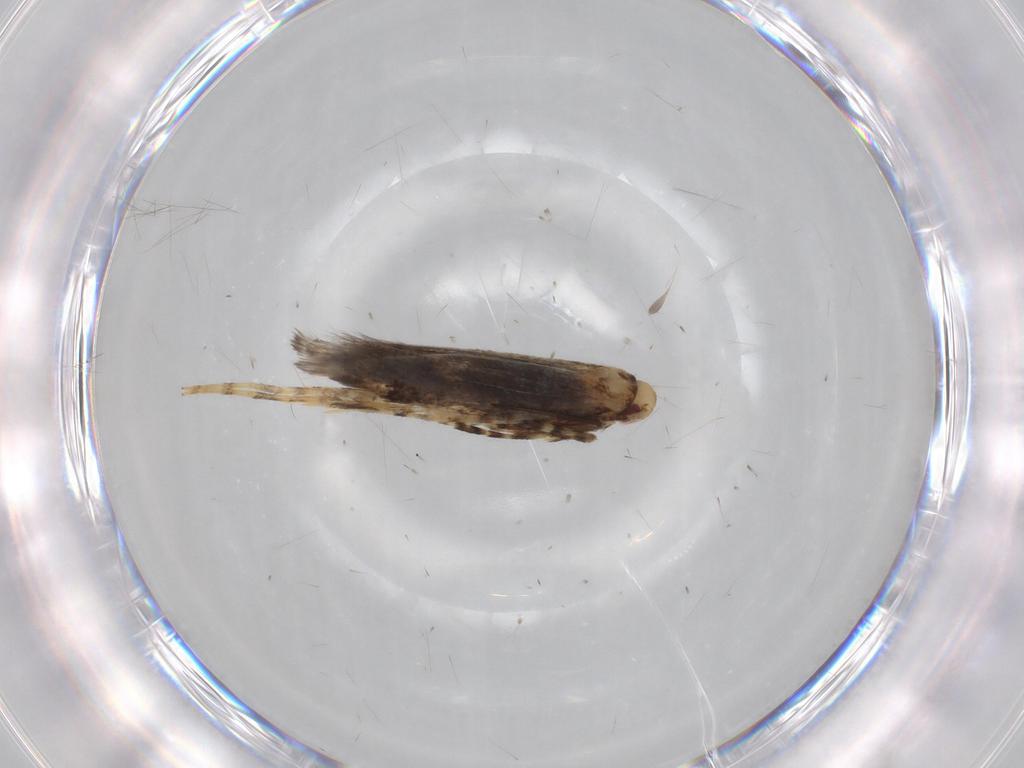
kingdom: Animalia
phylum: Arthropoda
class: Insecta
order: Lepidoptera
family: Gracillariidae
